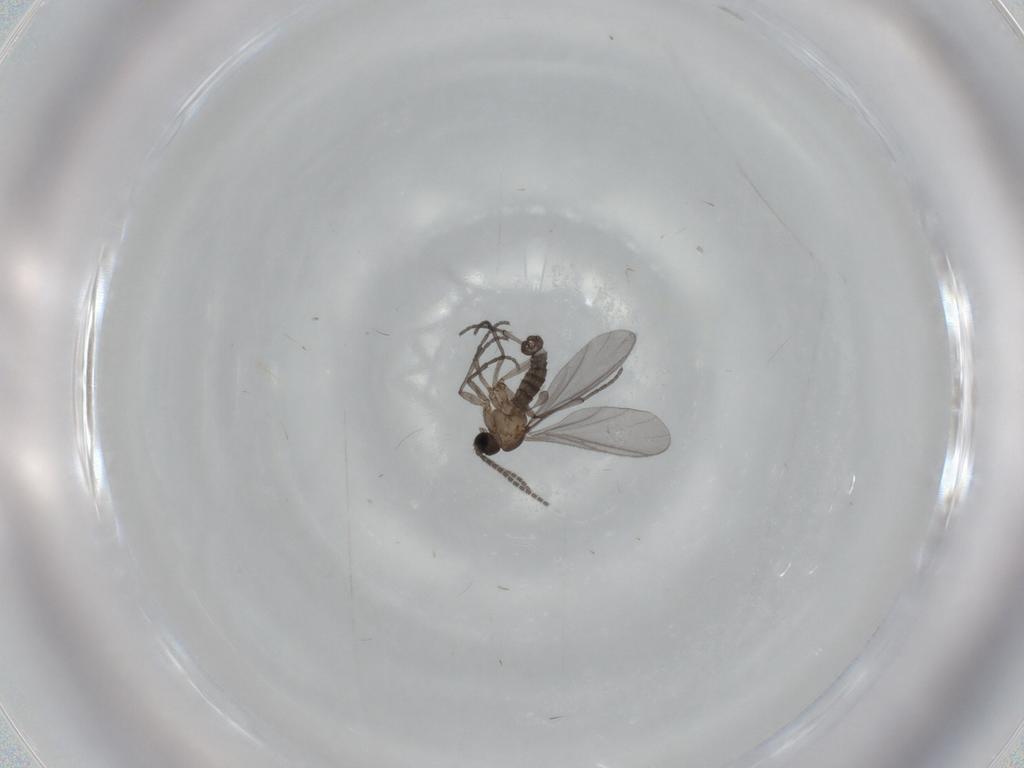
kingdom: Animalia
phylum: Arthropoda
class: Insecta
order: Diptera
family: Sciaridae
